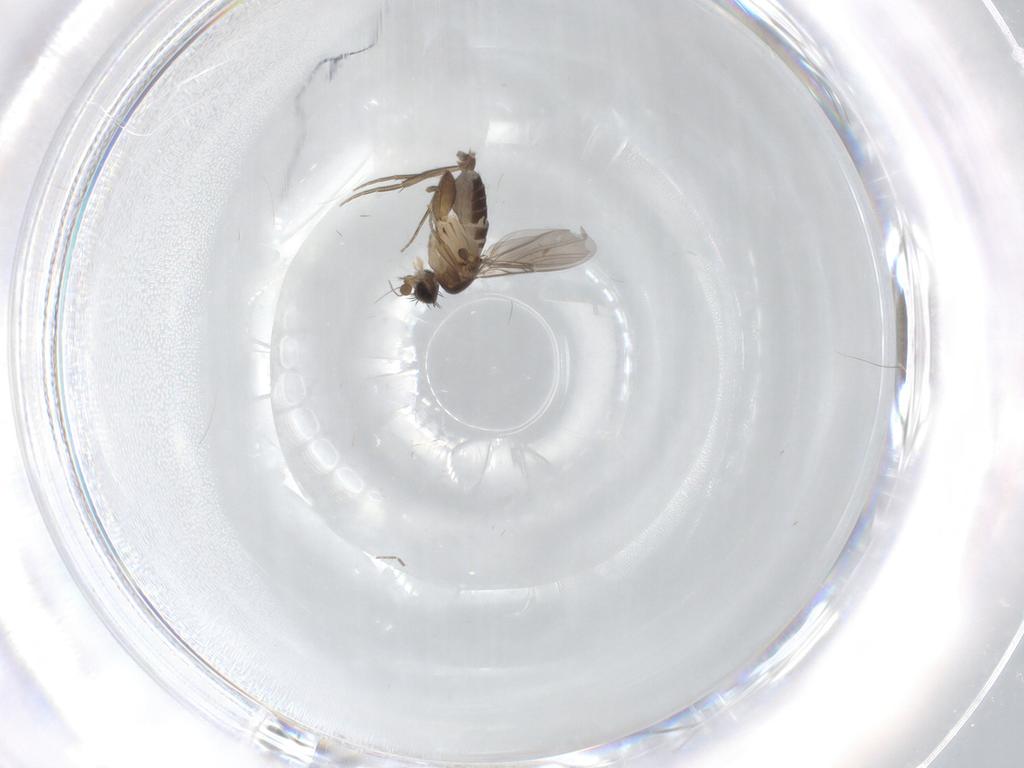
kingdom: Animalia
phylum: Arthropoda
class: Insecta
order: Diptera
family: Phoridae
